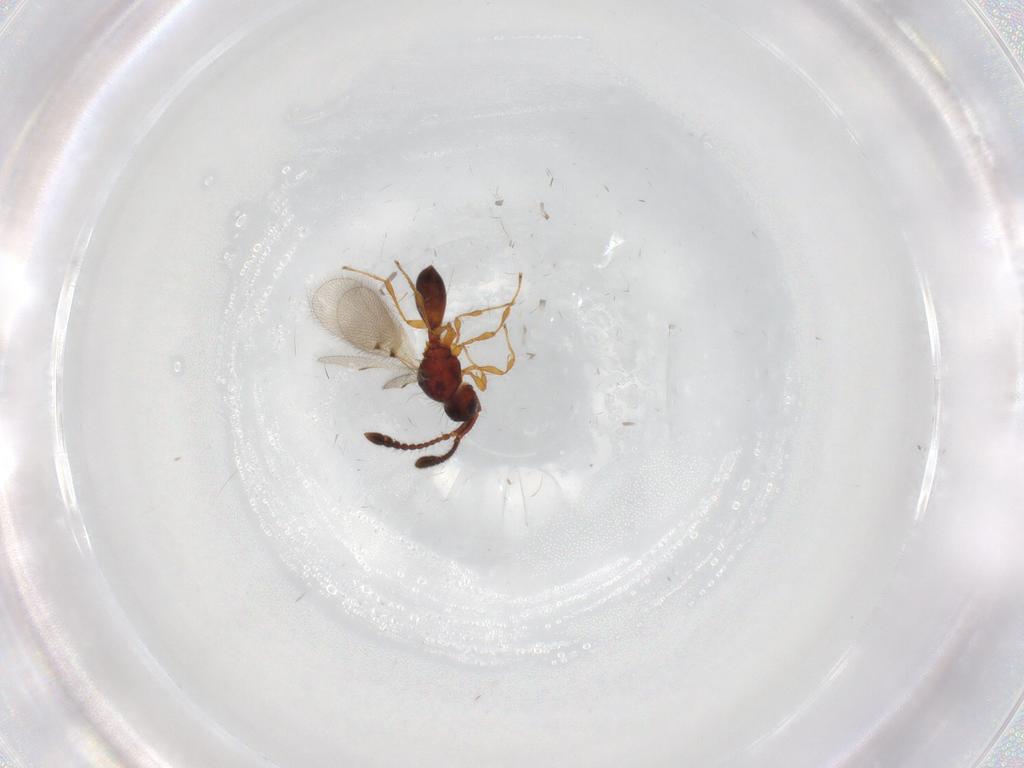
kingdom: Animalia
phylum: Arthropoda
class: Insecta
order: Hymenoptera
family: Diapriidae
